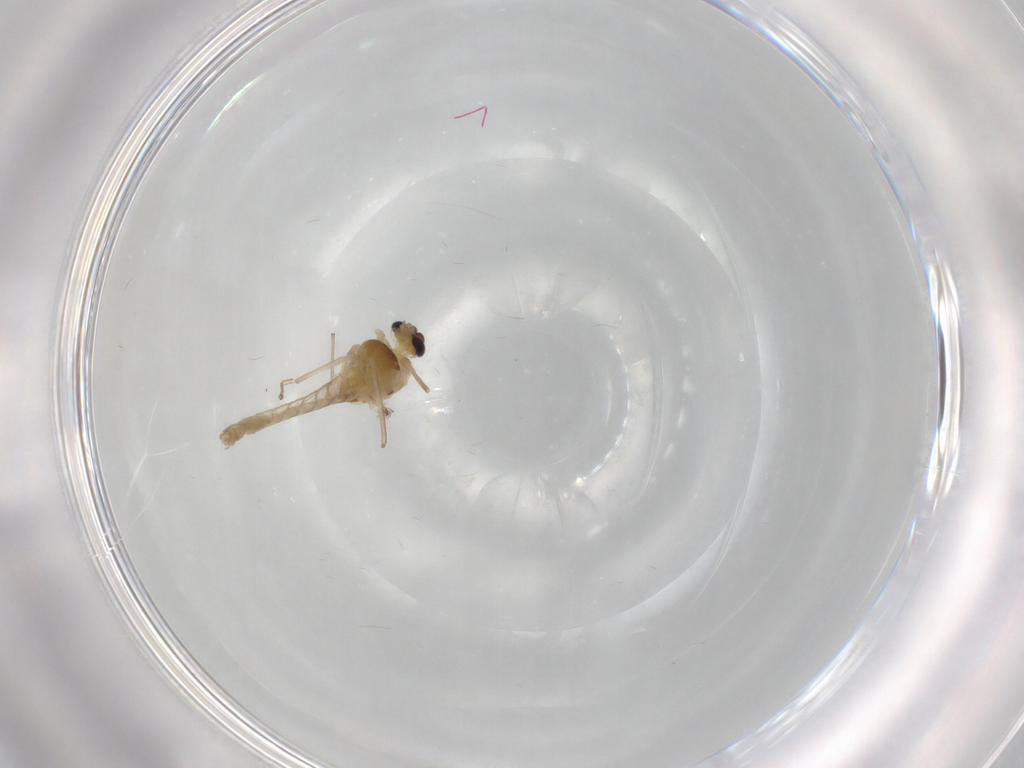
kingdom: Animalia
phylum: Arthropoda
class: Insecta
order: Diptera
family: Chironomidae
